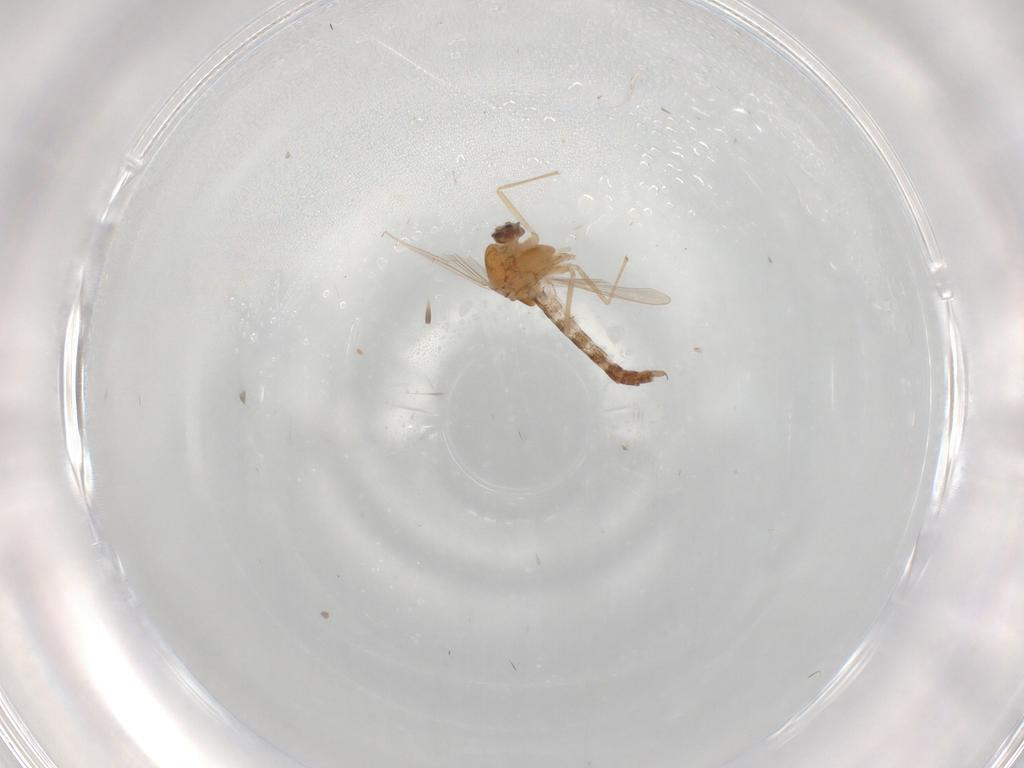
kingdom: Animalia
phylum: Arthropoda
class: Insecta
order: Diptera
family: Chironomidae
